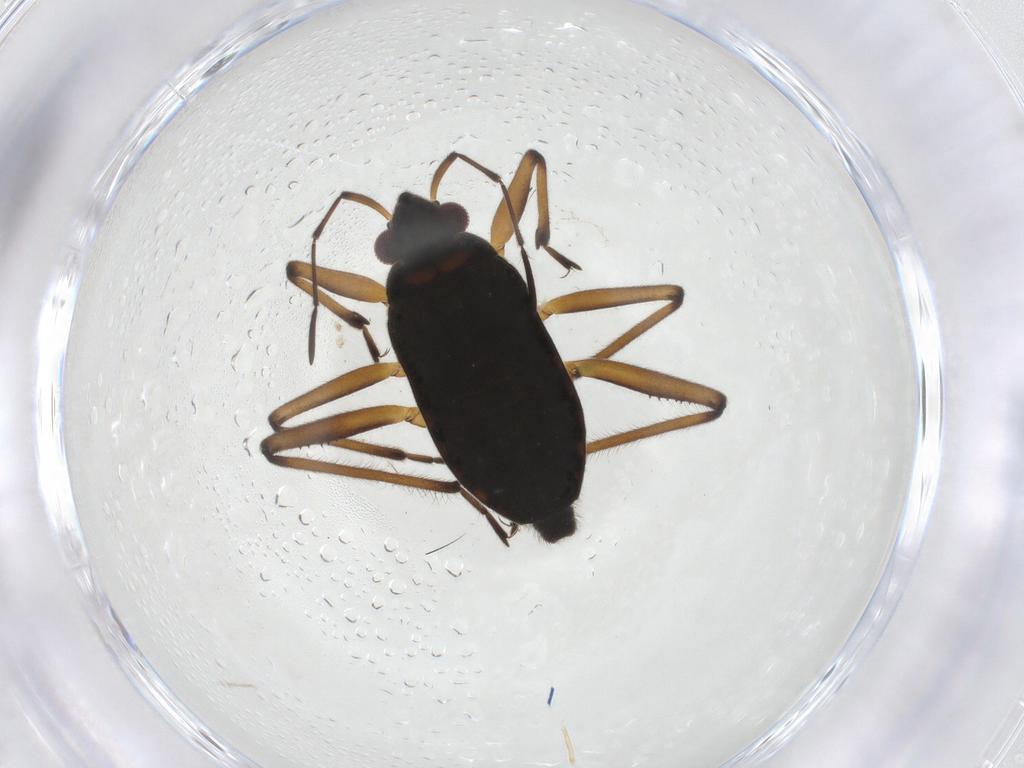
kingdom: Animalia
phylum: Arthropoda
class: Insecta
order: Hemiptera
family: Veliidae
